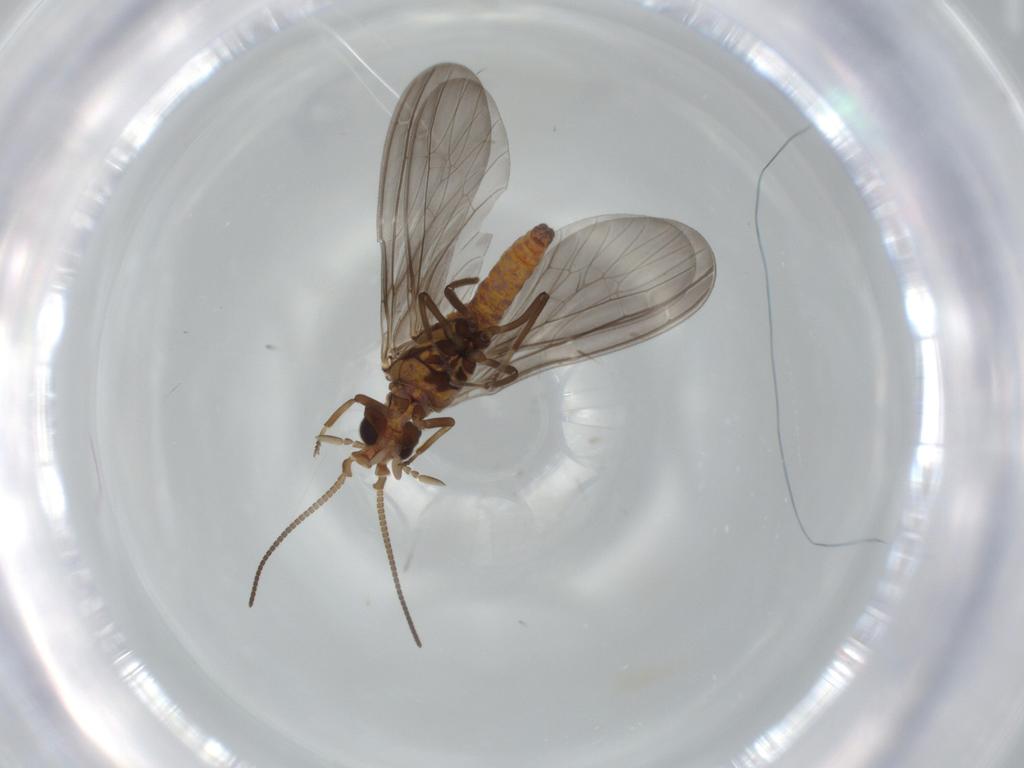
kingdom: Animalia
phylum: Arthropoda
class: Insecta
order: Neuroptera
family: Coniopterygidae
